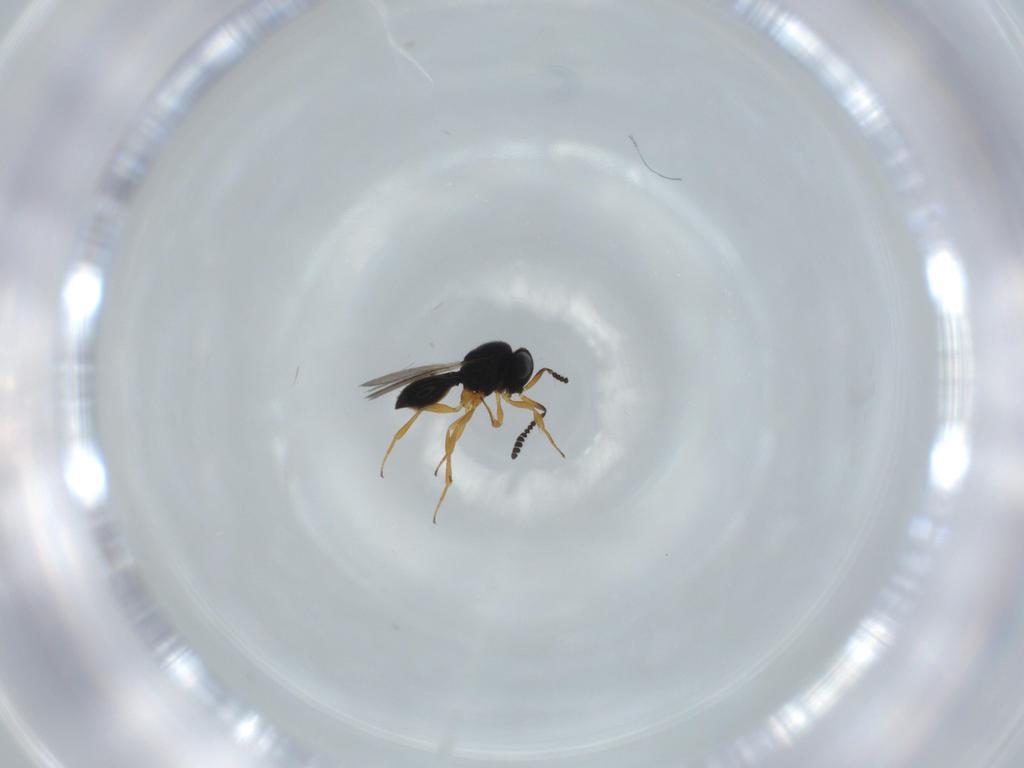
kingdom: Animalia
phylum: Arthropoda
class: Insecta
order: Hymenoptera
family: Scelionidae
